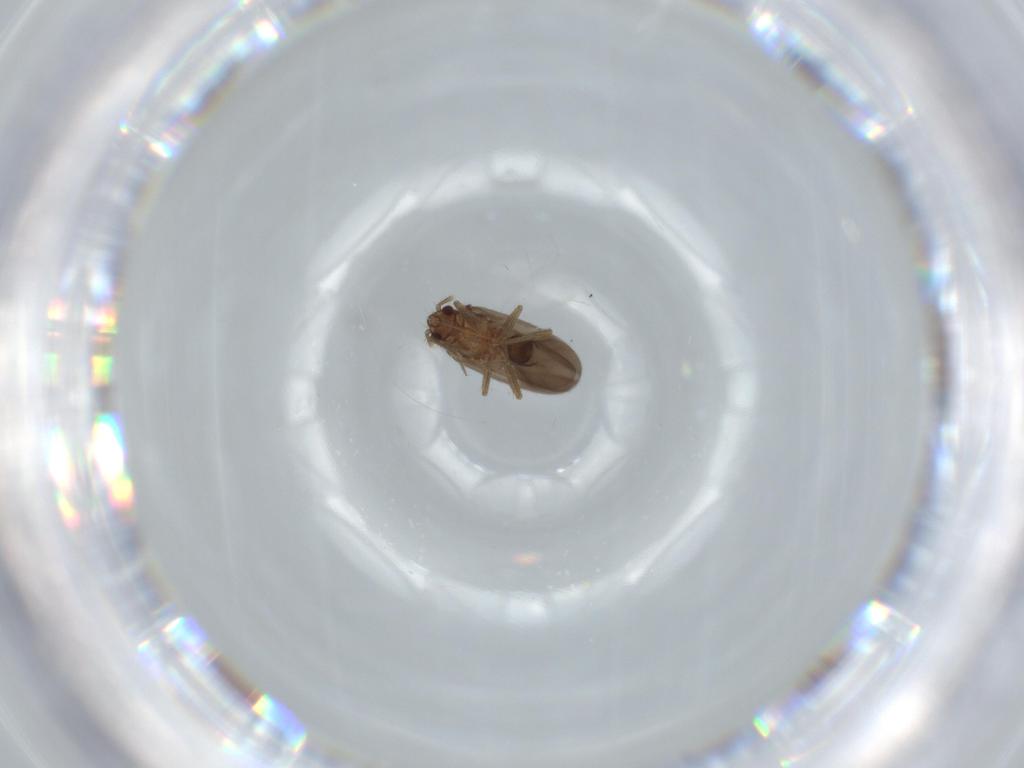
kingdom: Animalia
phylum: Arthropoda
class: Insecta
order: Hemiptera
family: Ceratocombidae
